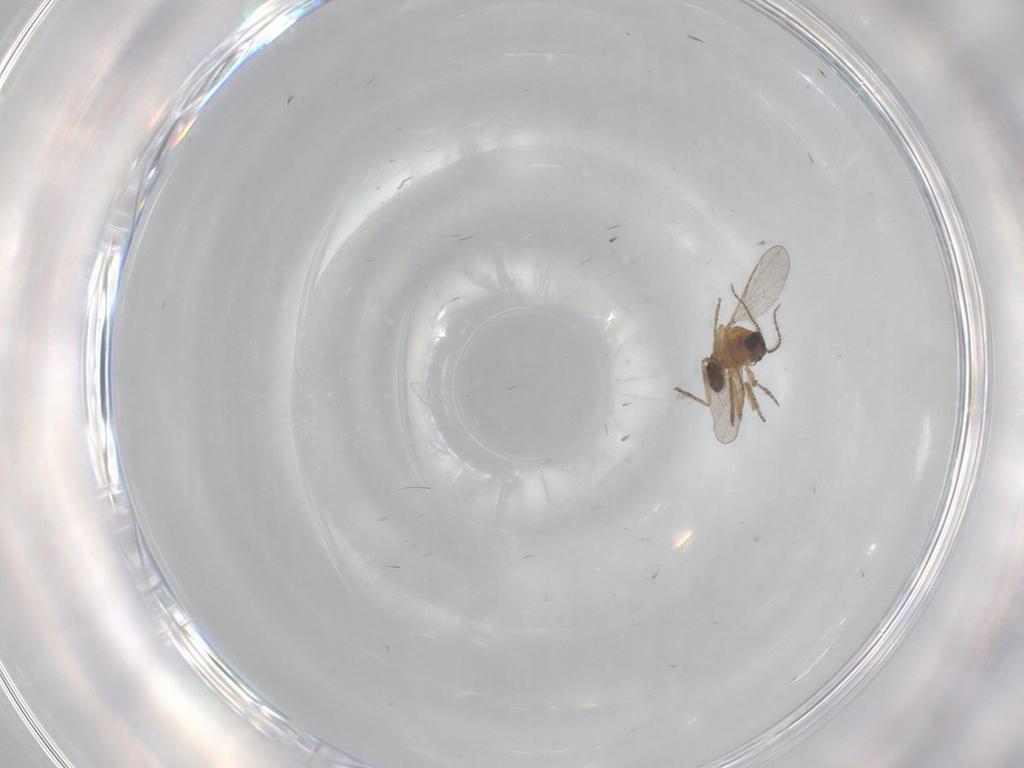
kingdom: Animalia
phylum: Arthropoda
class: Insecta
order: Diptera
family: Ceratopogonidae
